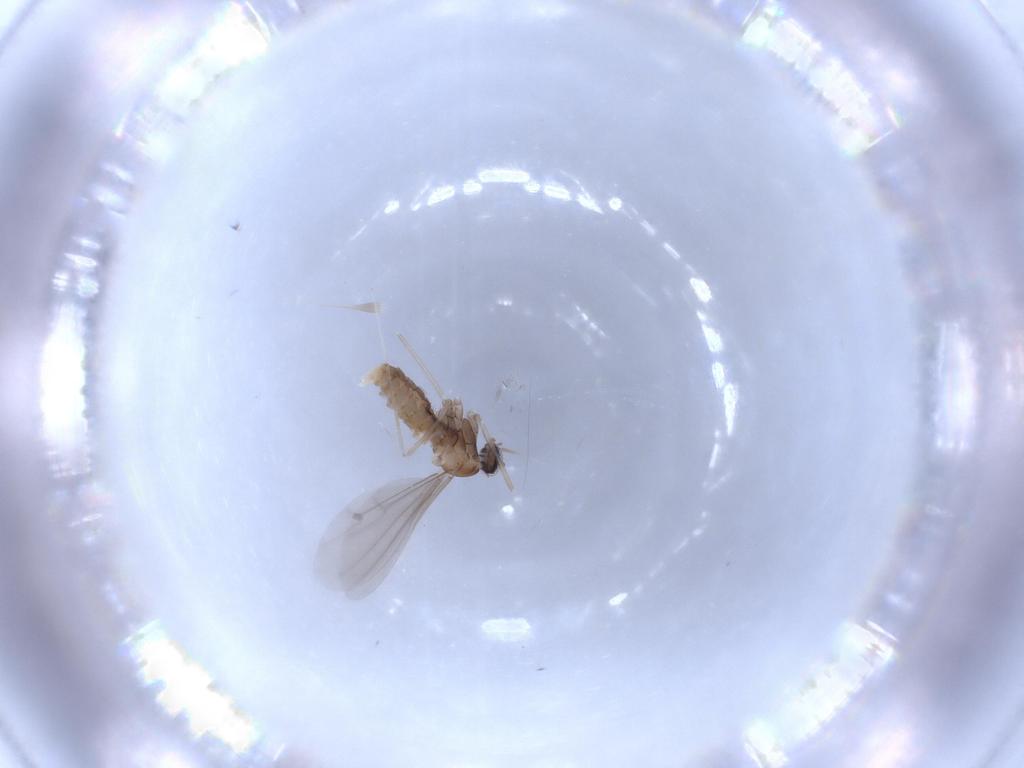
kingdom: Animalia
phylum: Arthropoda
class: Insecta
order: Diptera
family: Cecidomyiidae
